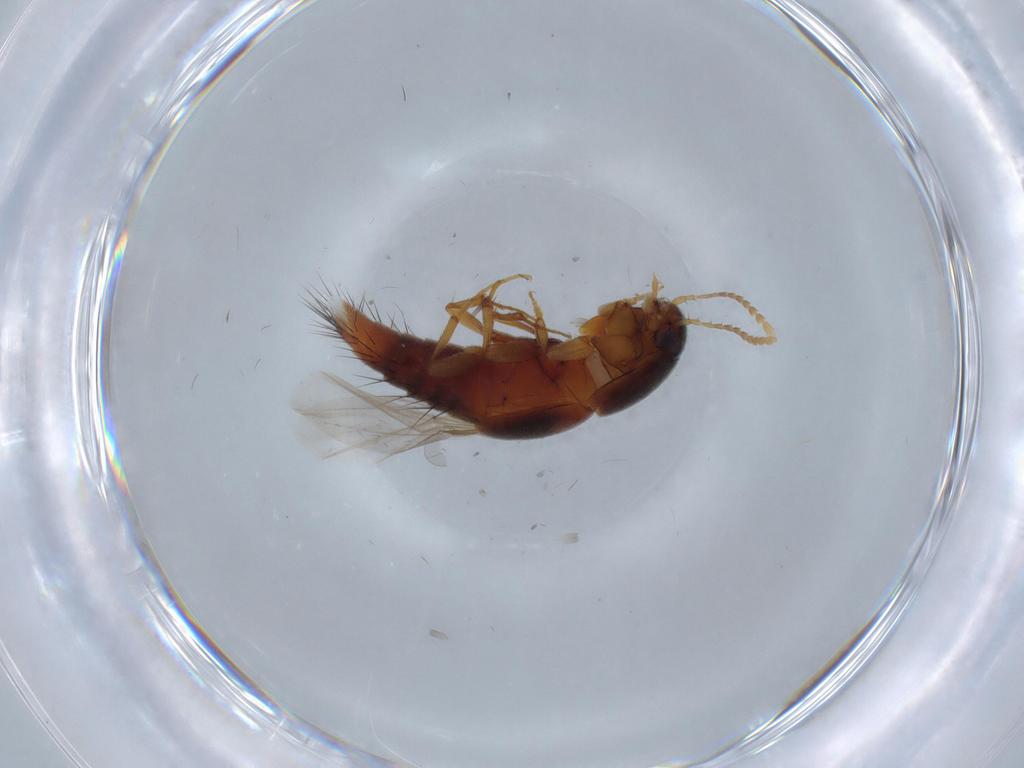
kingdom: Animalia
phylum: Arthropoda
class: Insecta
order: Coleoptera
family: Staphylinidae
